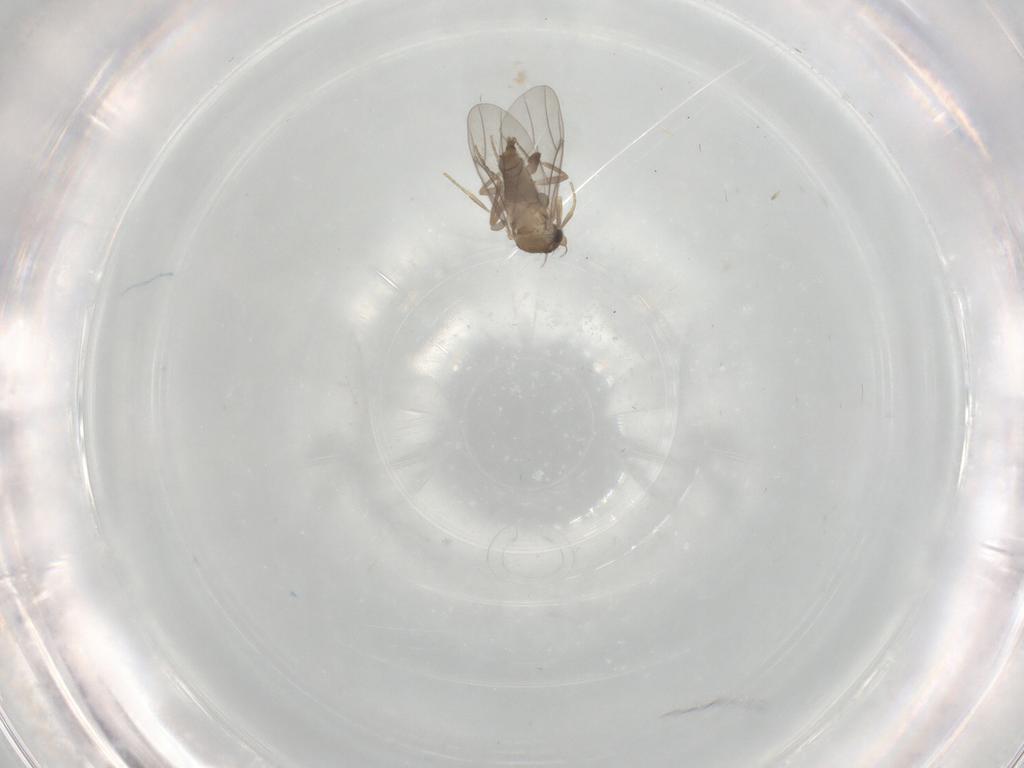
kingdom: Animalia
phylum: Arthropoda
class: Insecta
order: Diptera
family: Drosophilidae
